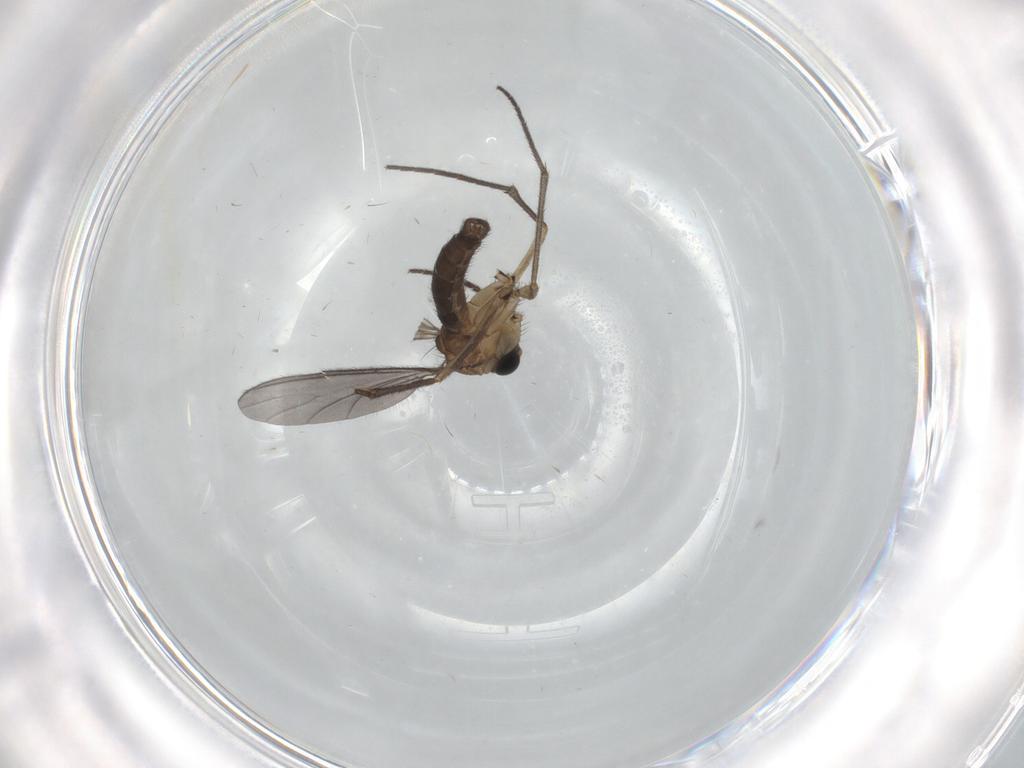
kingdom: Animalia
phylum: Arthropoda
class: Insecta
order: Diptera
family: Sciaridae
